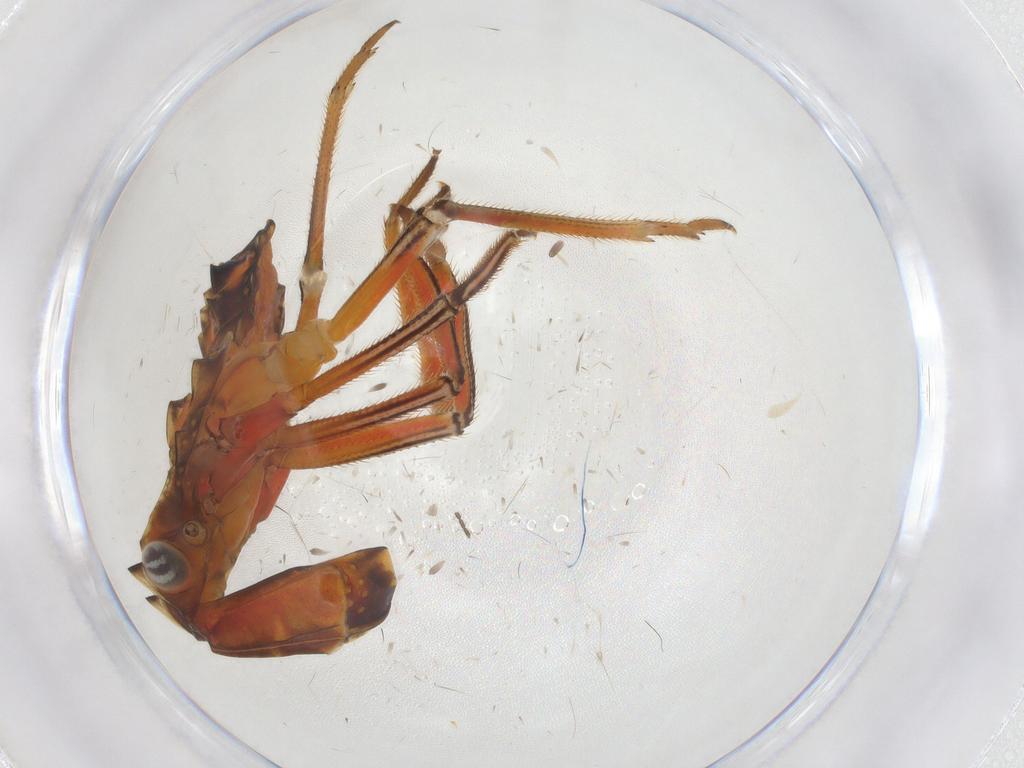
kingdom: Animalia
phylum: Arthropoda
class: Insecta
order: Hemiptera
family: Fulgoridae
